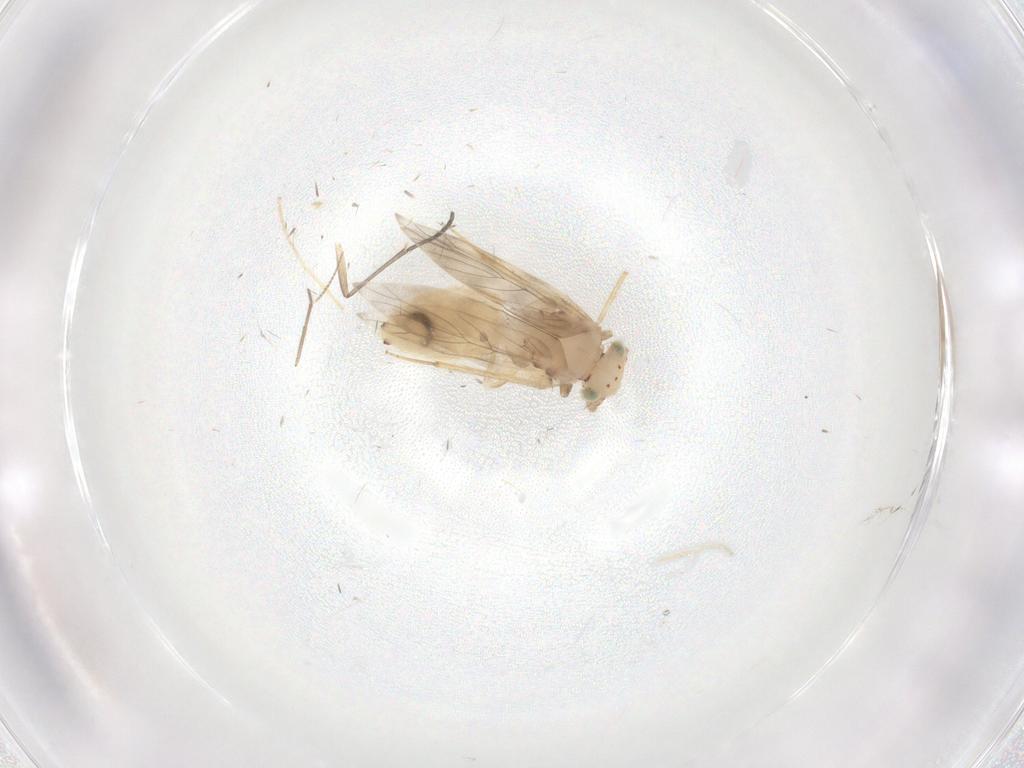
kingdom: Animalia
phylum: Arthropoda
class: Insecta
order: Psocodea
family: Lepidopsocidae
